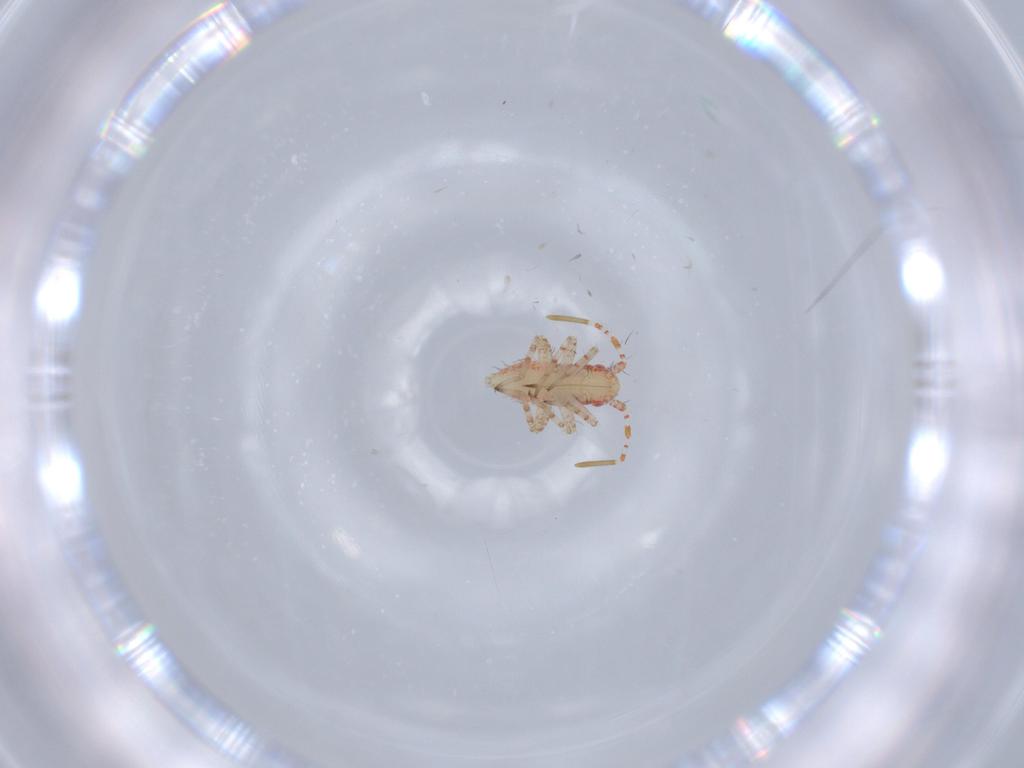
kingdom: Animalia
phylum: Arthropoda
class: Insecta
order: Hemiptera
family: Miridae
